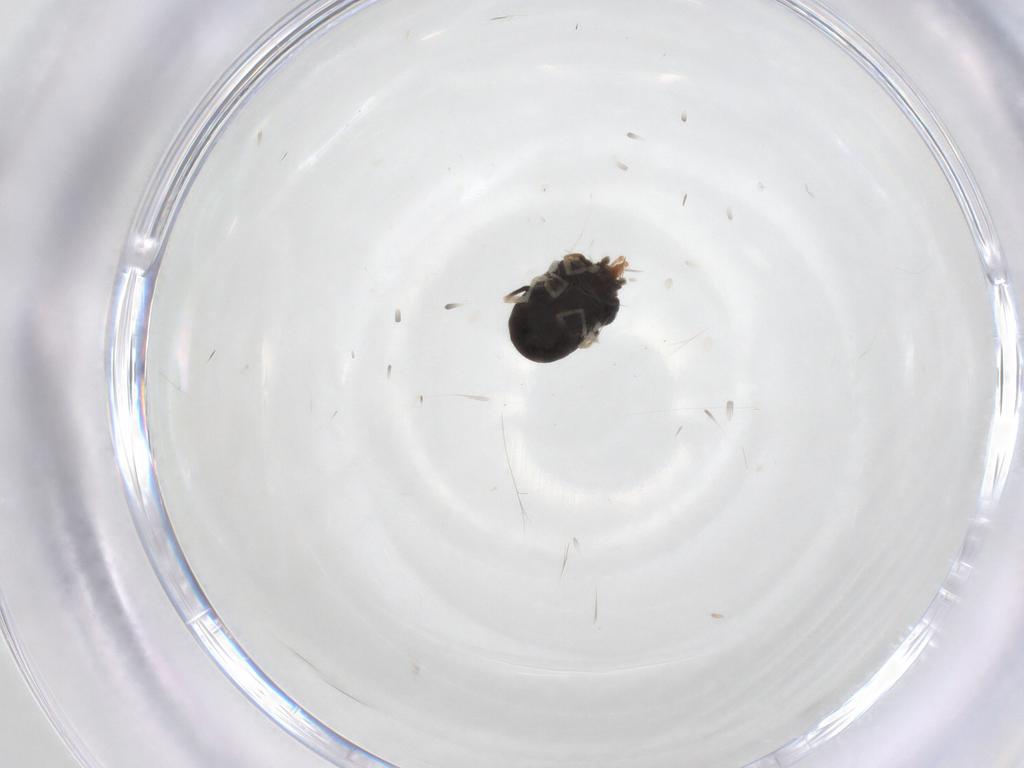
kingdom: Animalia
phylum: Arthropoda
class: Arachnida
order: Trombidiformes
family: Erythraeidae
